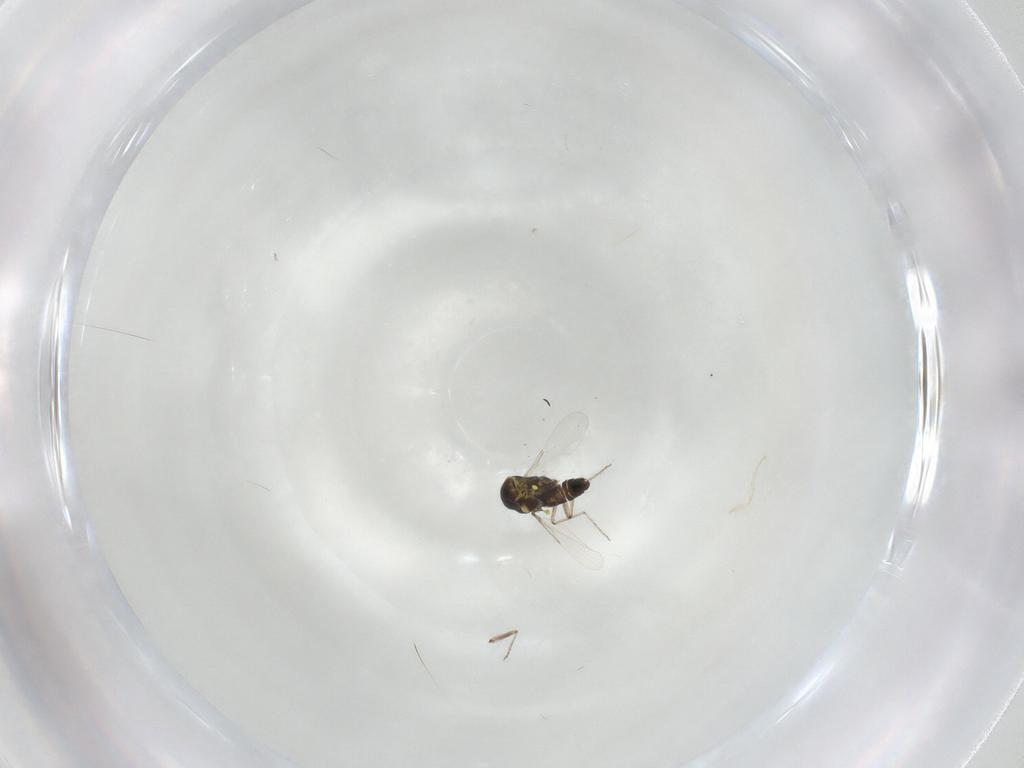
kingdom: Animalia
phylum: Arthropoda
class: Insecta
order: Diptera
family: Ceratopogonidae
